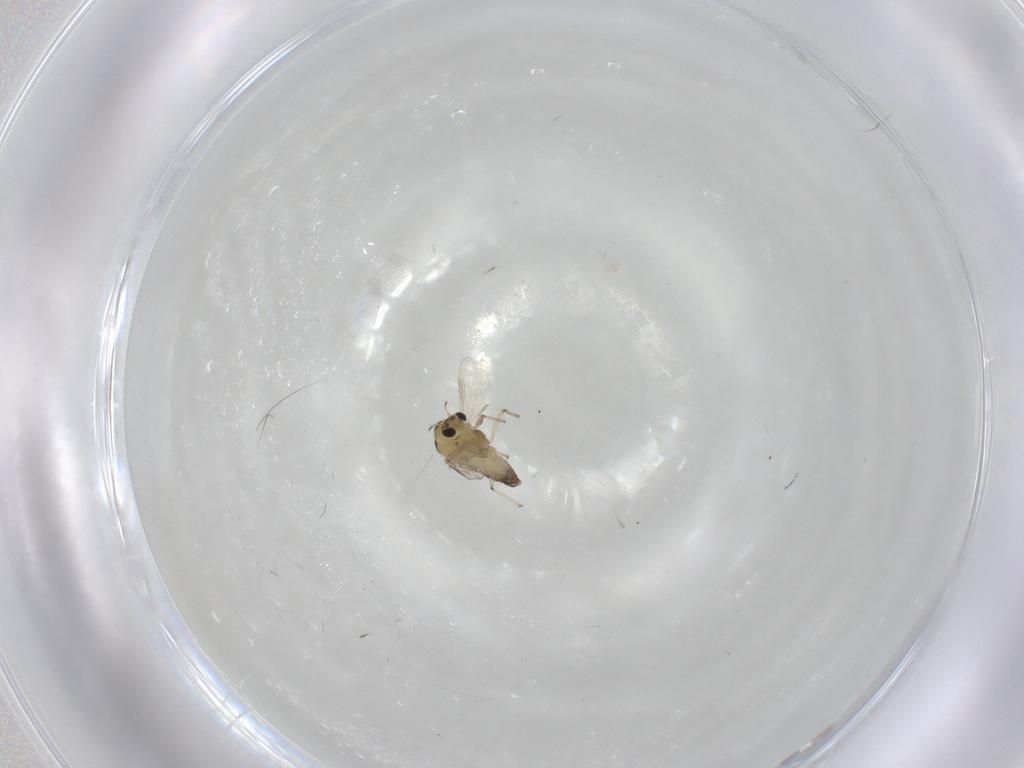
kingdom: Animalia
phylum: Arthropoda
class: Insecta
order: Diptera
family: Chironomidae
